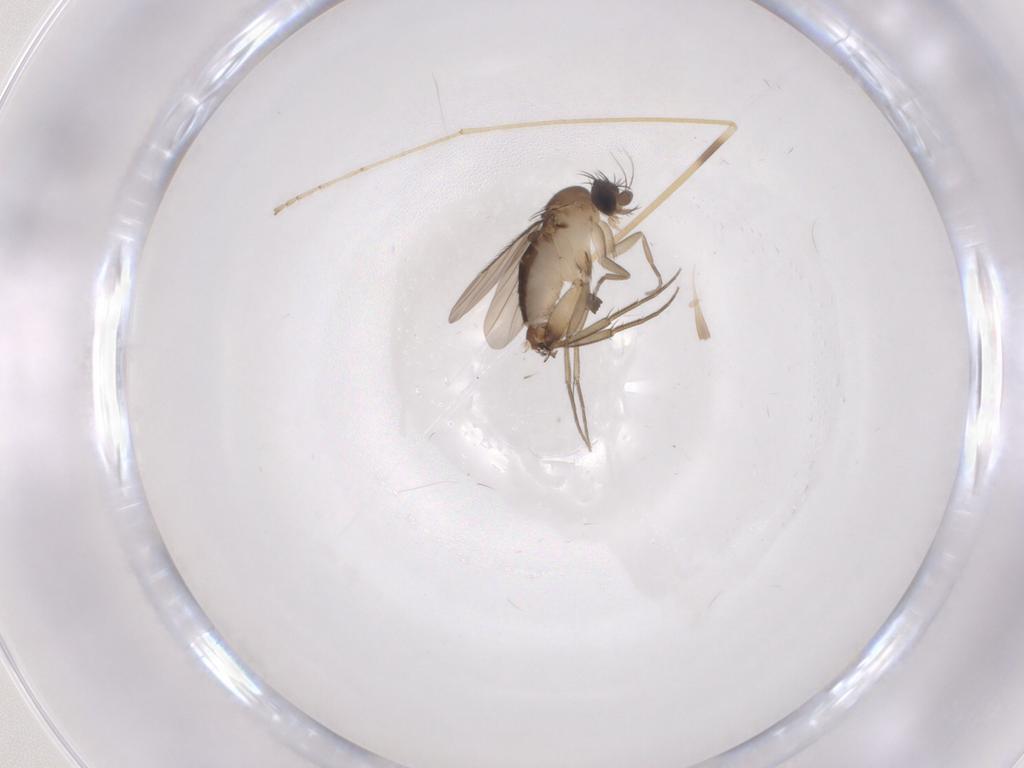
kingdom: Animalia
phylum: Arthropoda
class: Insecta
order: Diptera
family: Phoridae
